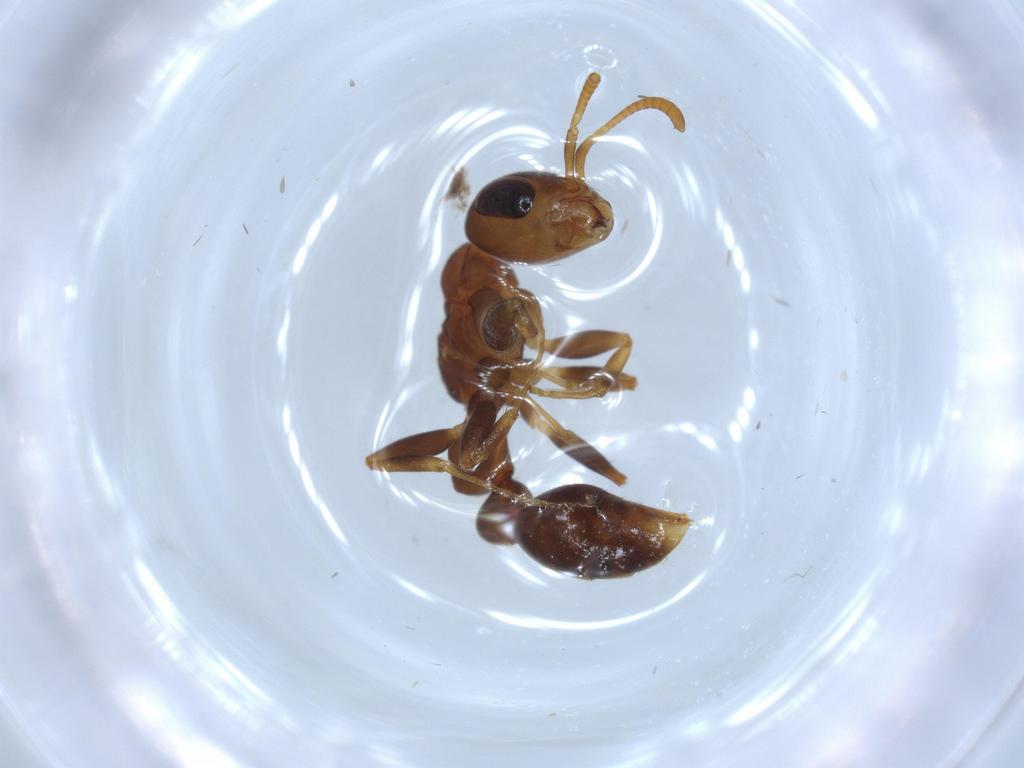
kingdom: Animalia
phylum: Arthropoda
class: Insecta
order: Hymenoptera
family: Formicidae
